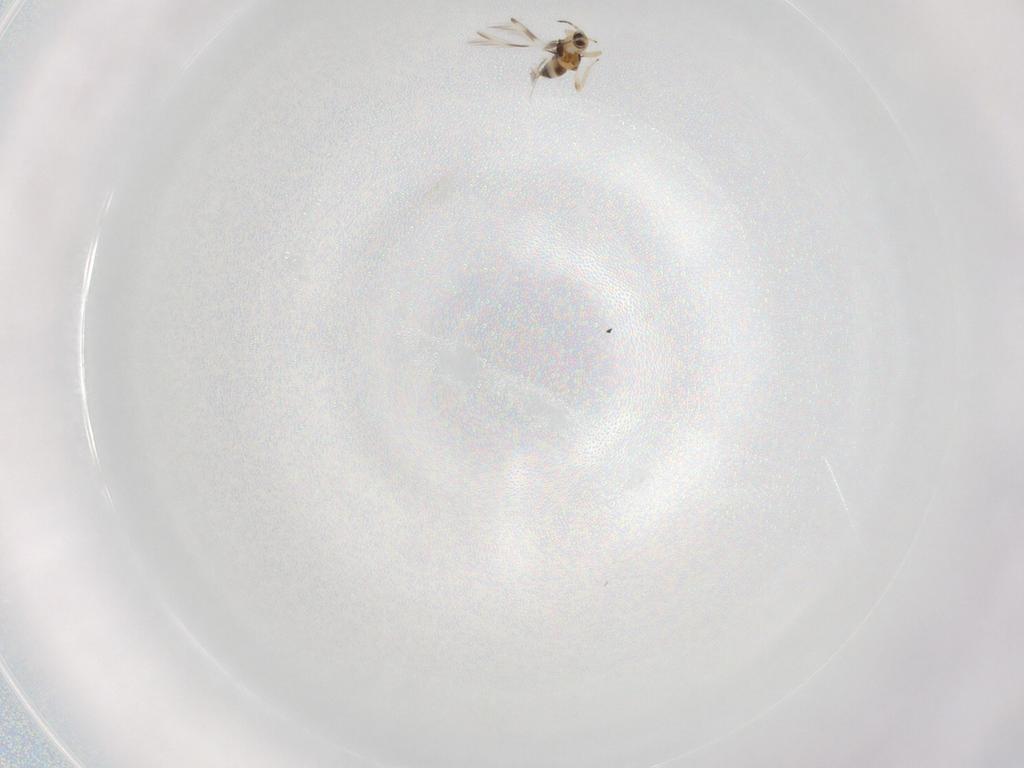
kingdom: Animalia
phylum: Arthropoda
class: Insecta
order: Thysanoptera
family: Thripidae
